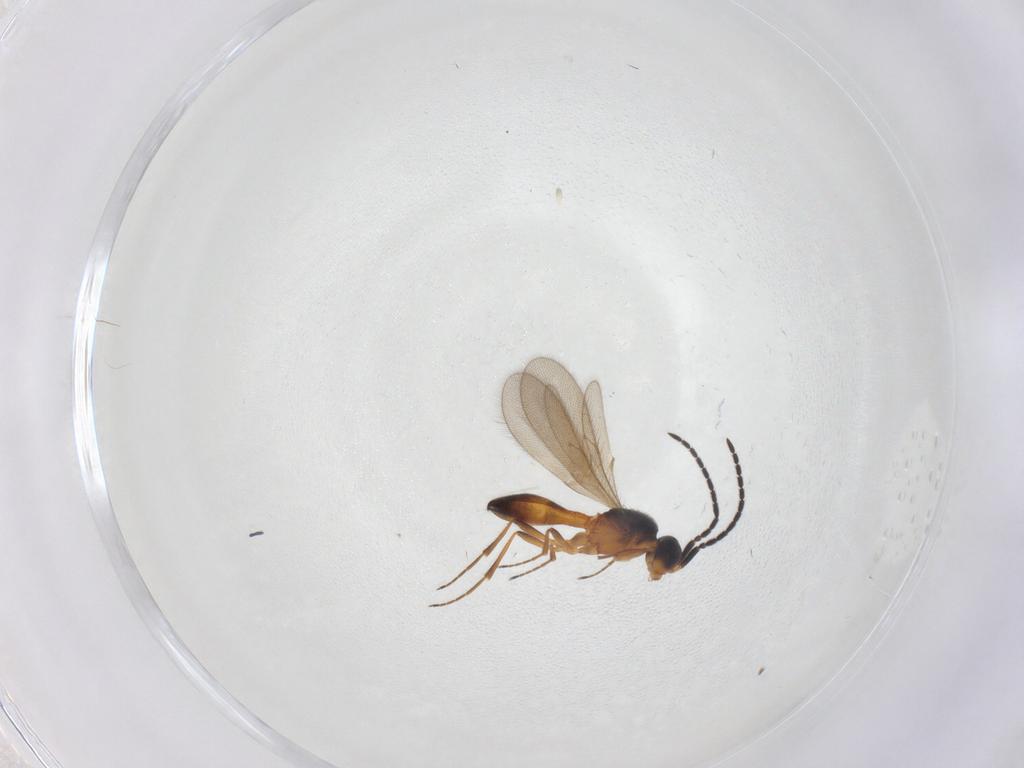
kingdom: Animalia
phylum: Arthropoda
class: Insecta
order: Hymenoptera
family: Scelionidae
